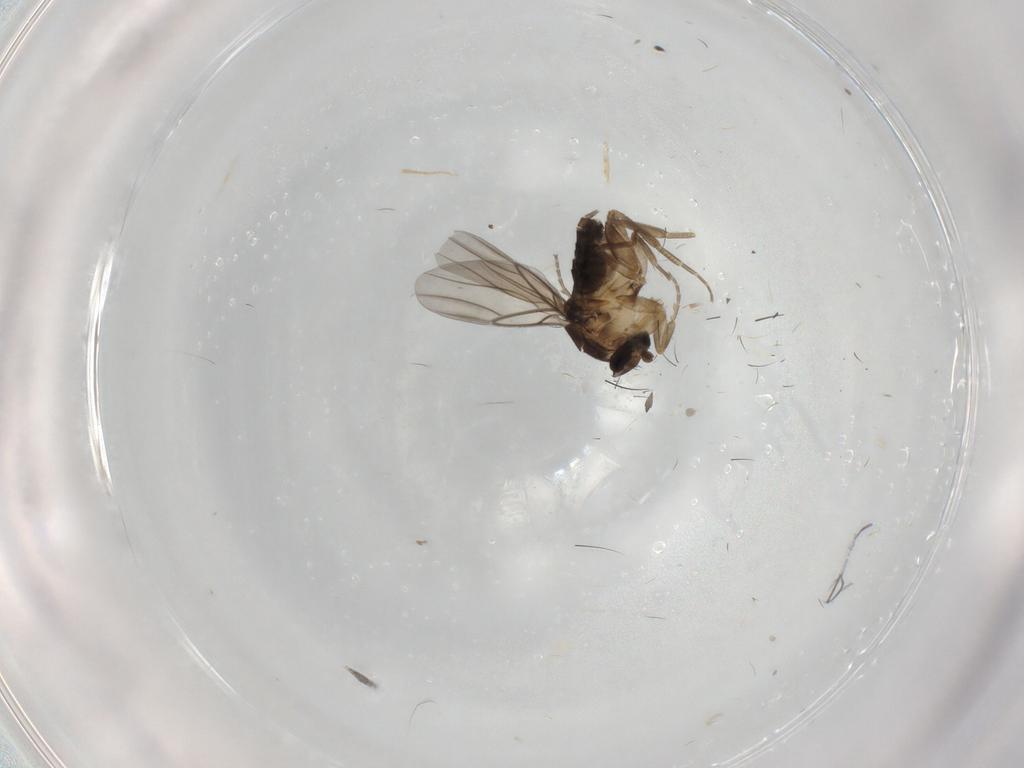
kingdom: Animalia
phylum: Arthropoda
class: Insecta
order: Diptera
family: Phoridae
